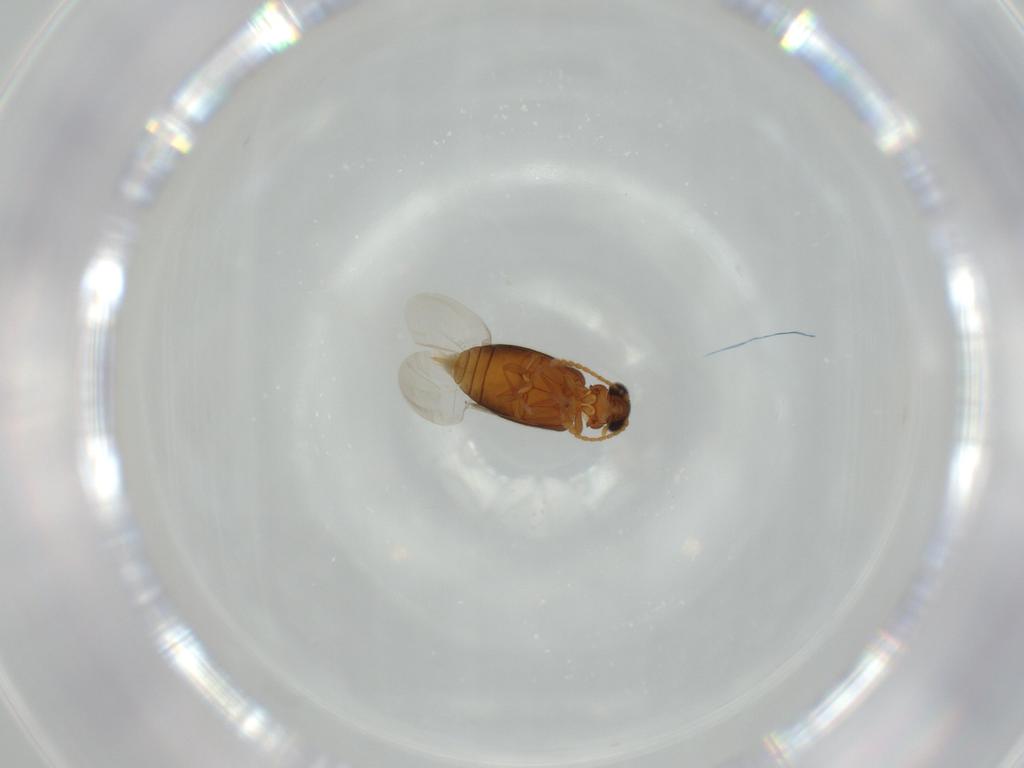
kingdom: Animalia
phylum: Arthropoda
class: Insecta
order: Coleoptera
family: Aderidae
